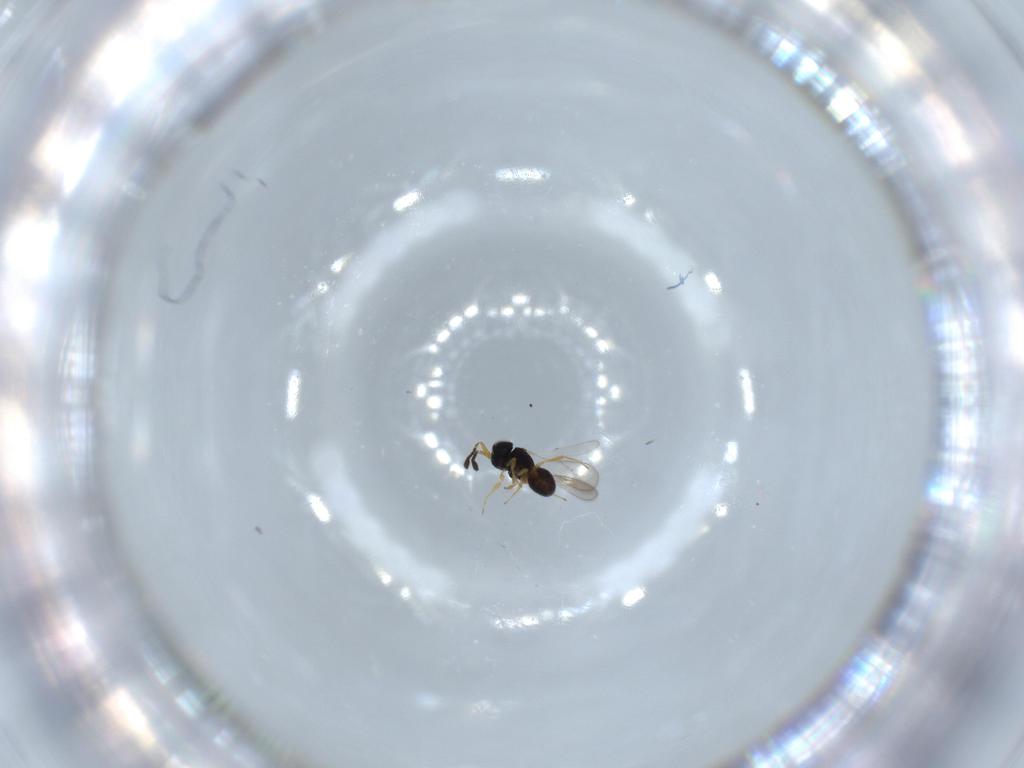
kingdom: Animalia
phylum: Arthropoda
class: Insecta
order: Hymenoptera
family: Scelionidae
